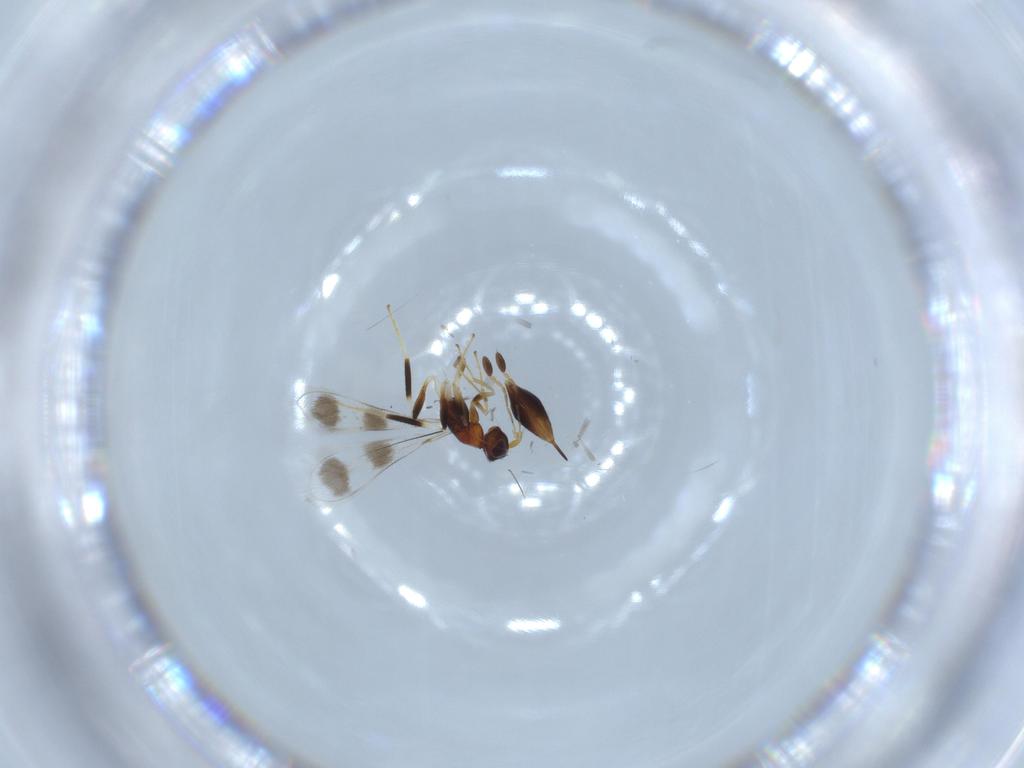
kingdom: Animalia
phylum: Arthropoda
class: Insecta
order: Hymenoptera
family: Mymaridae
